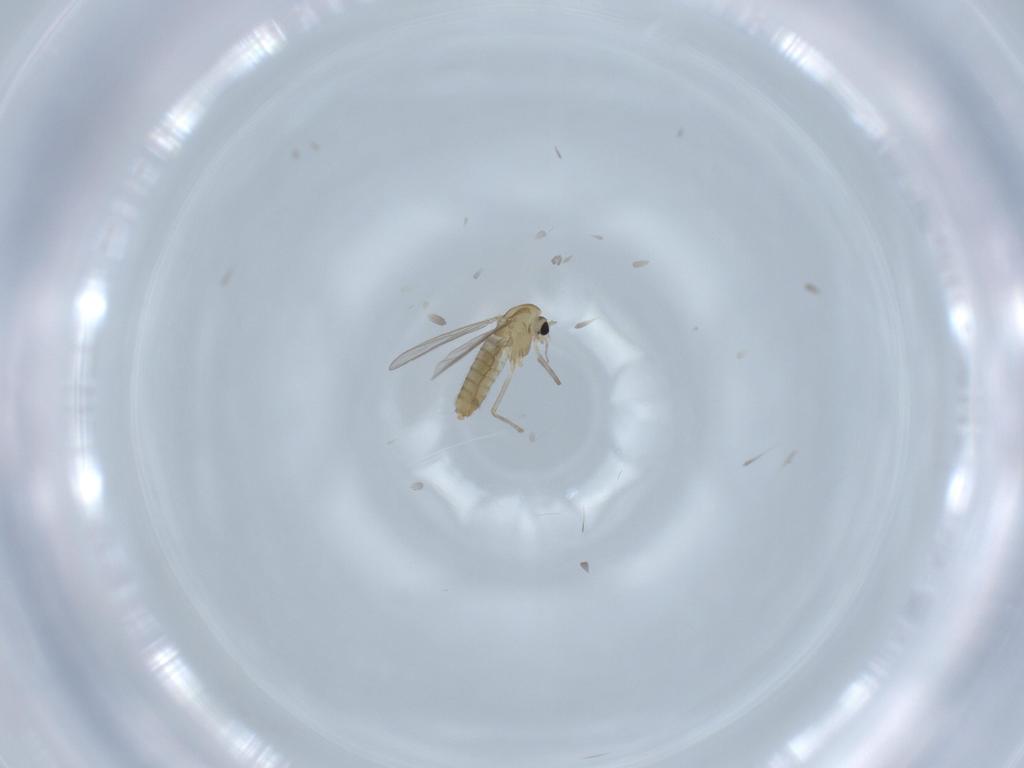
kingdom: Animalia
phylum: Arthropoda
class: Insecta
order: Diptera
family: Chironomidae
